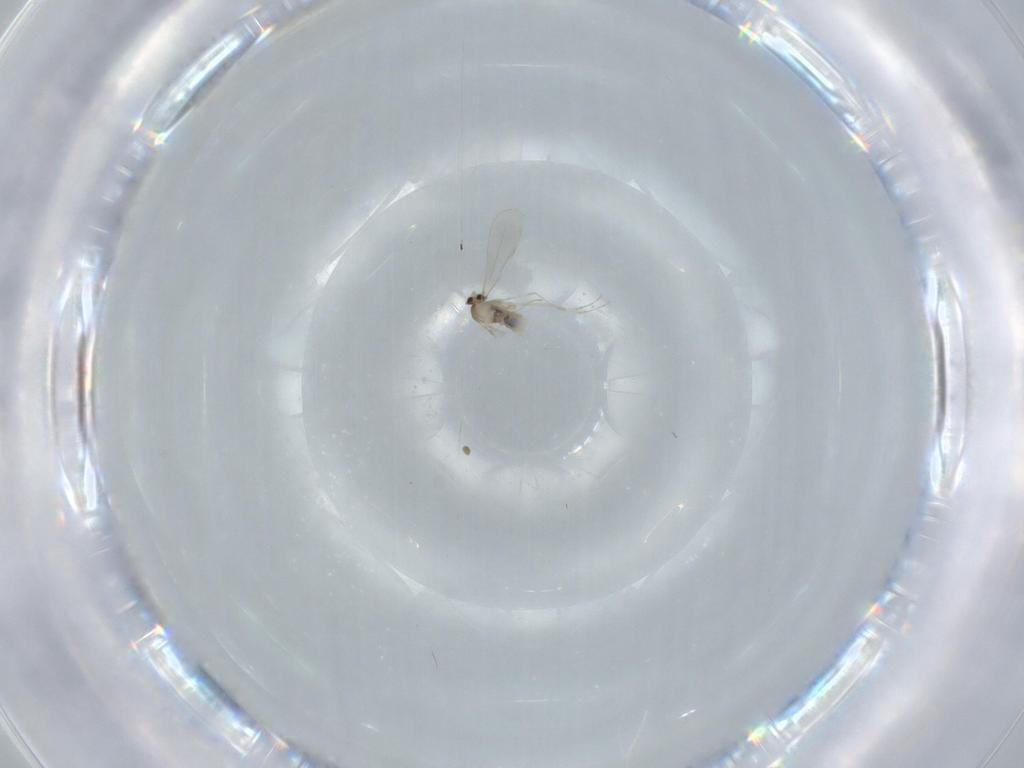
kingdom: Animalia
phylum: Arthropoda
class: Insecta
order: Diptera
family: Cecidomyiidae
